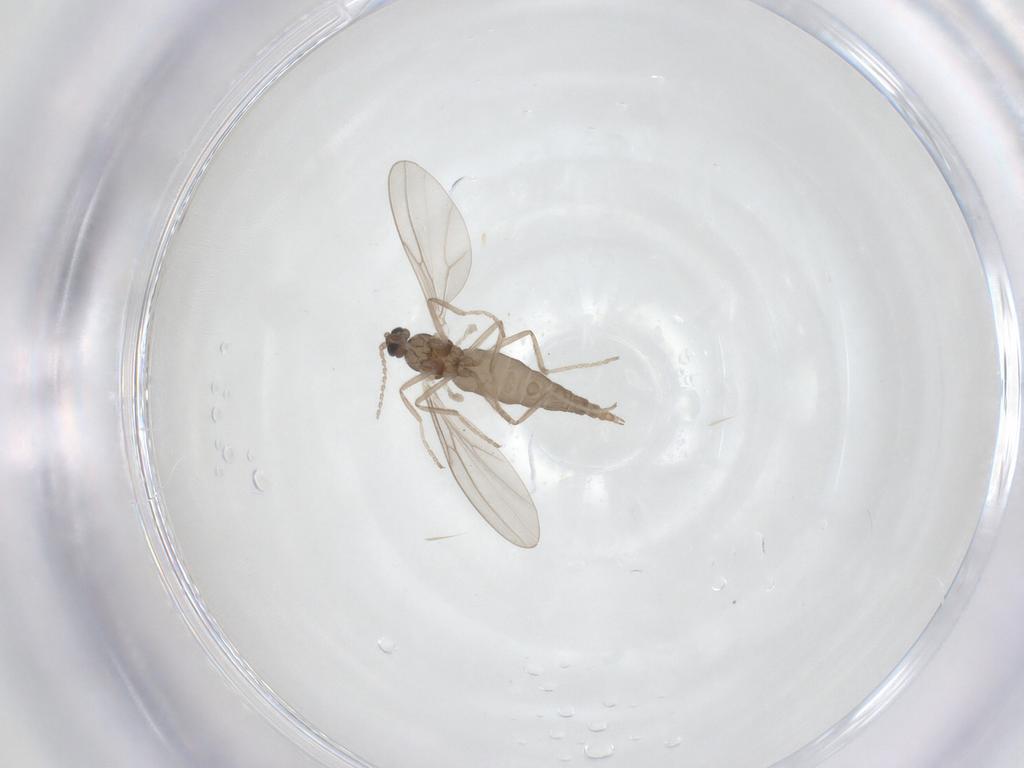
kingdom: Animalia
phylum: Arthropoda
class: Insecta
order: Diptera
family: Cecidomyiidae
